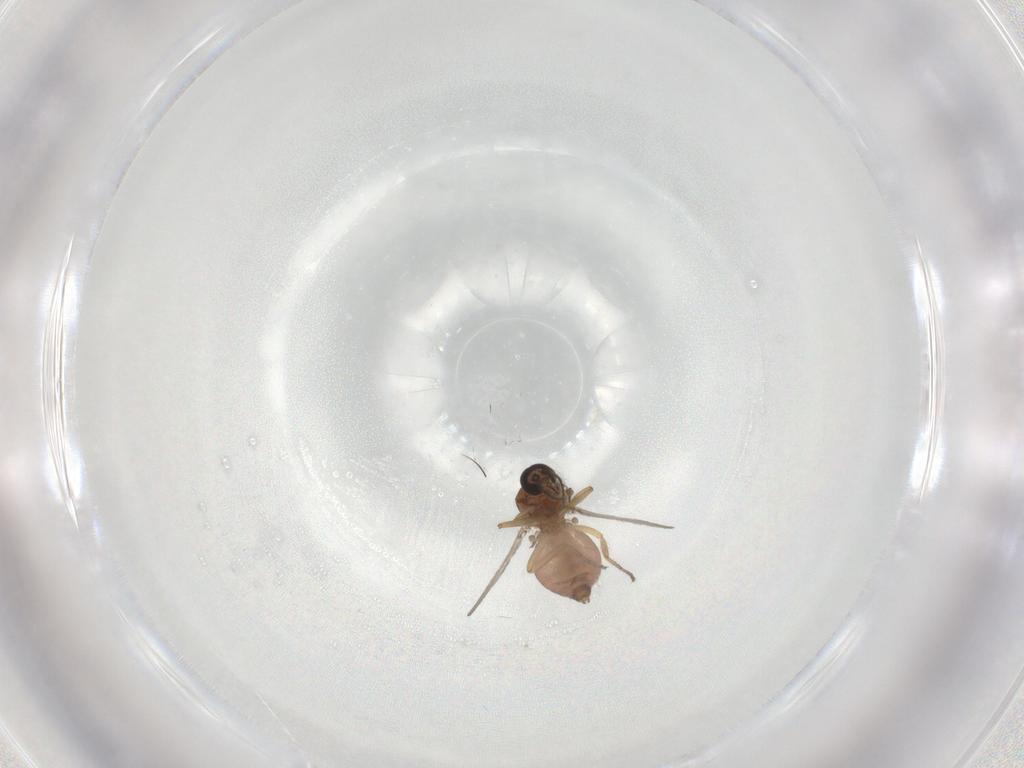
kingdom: Animalia
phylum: Arthropoda
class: Insecta
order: Diptera
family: Ceratopogonidae
